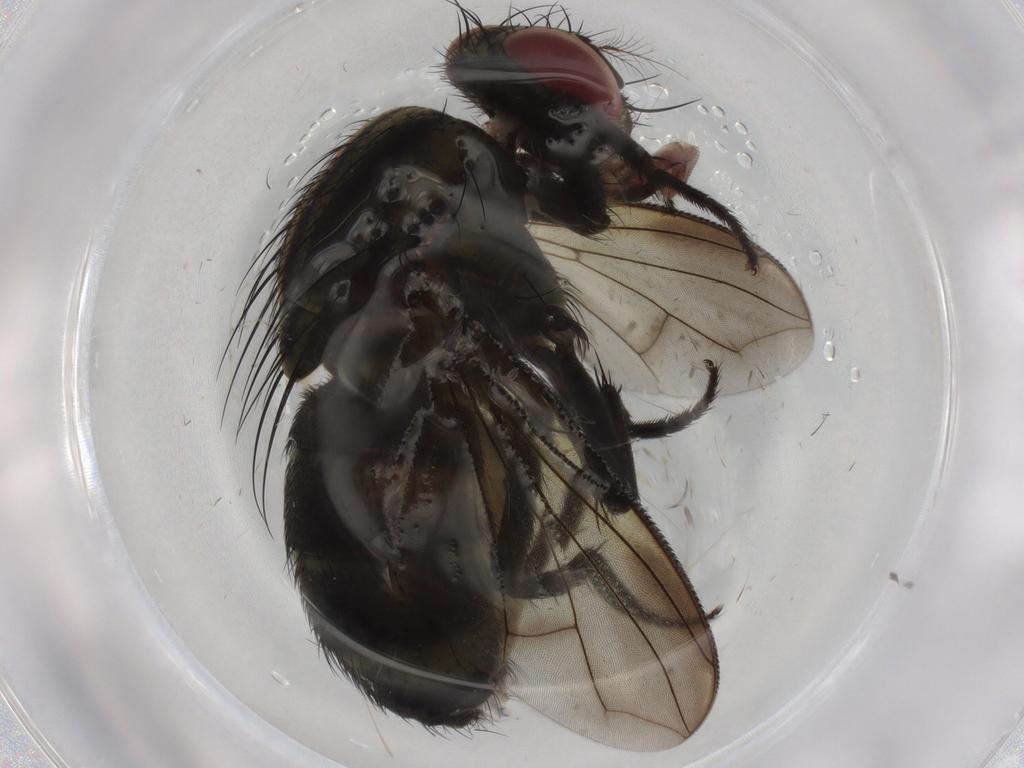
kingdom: Animalia
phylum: Arthropoda
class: Insecta
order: Diptera
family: Sarcophagidae
